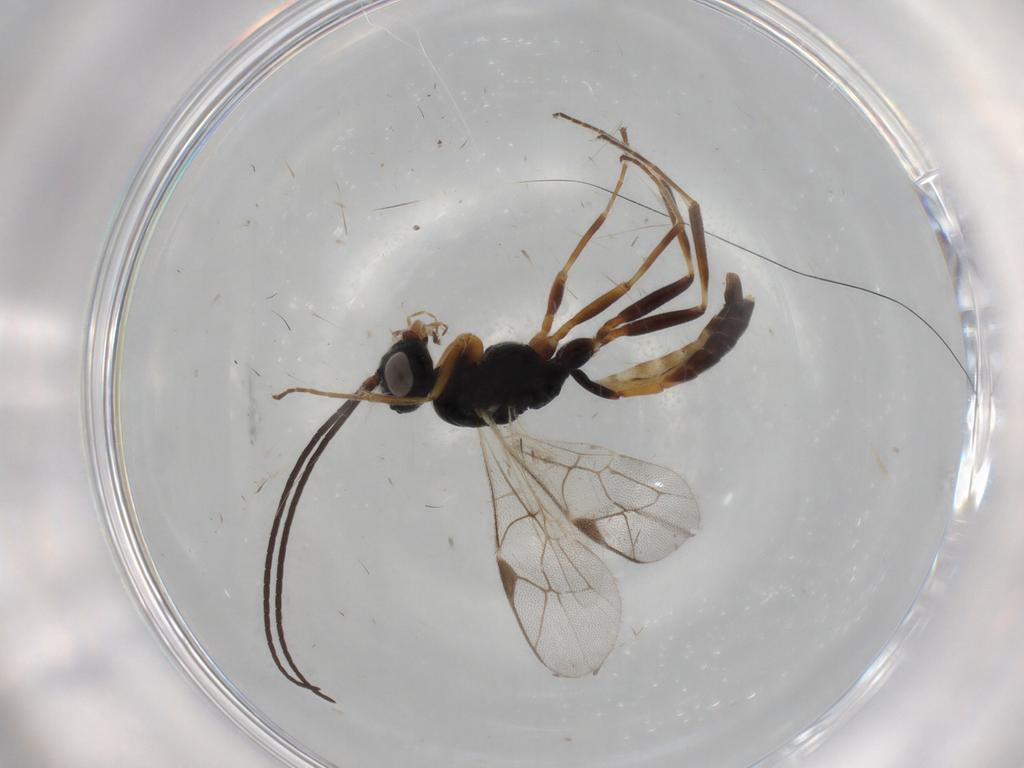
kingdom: Animalia
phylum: Arthropoda
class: Insecta
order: Hymenoptera
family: Ichneumonidae
